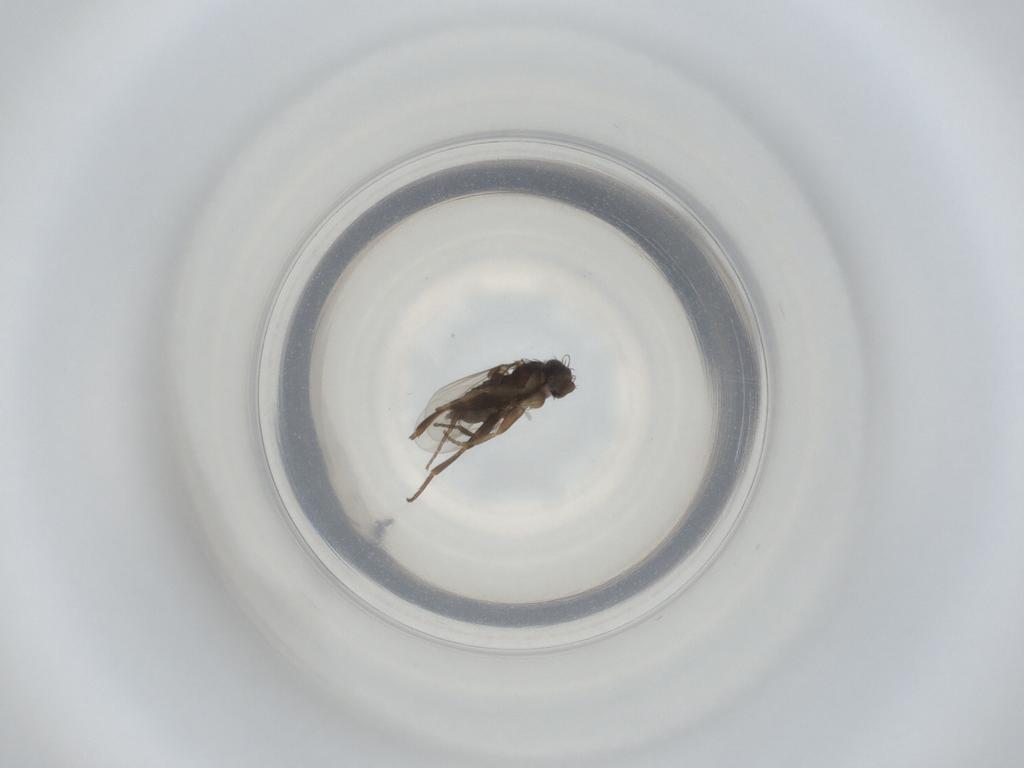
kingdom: Animalia
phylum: Arthropoda
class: Insecta
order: Diptera
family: Phoridae
